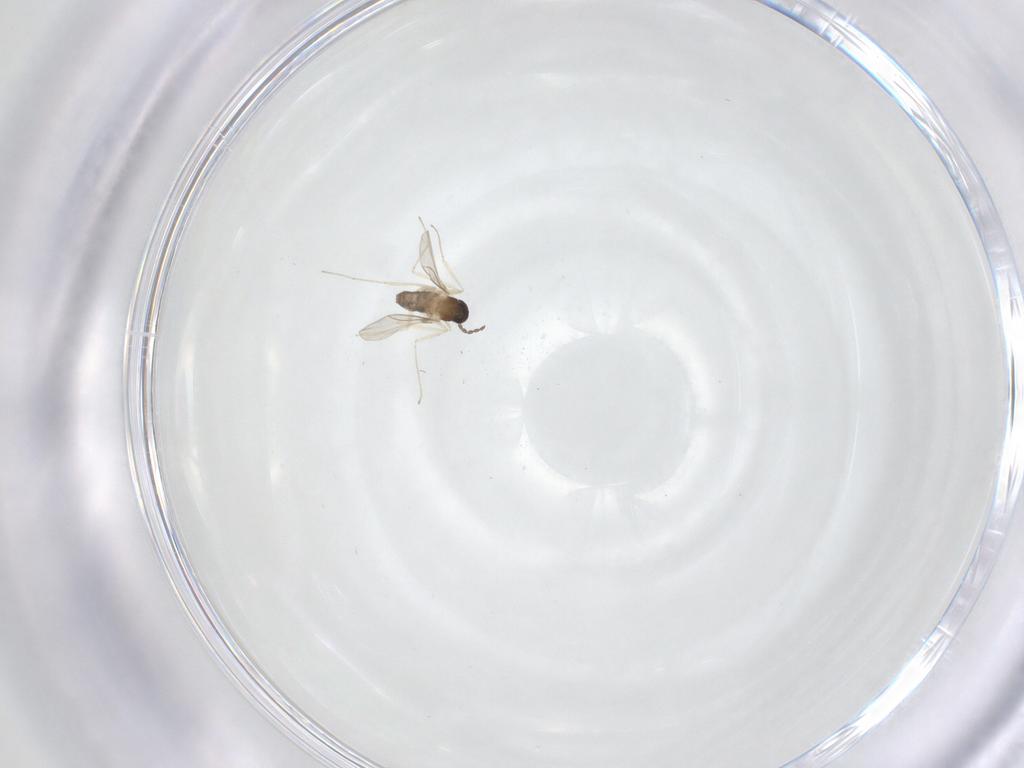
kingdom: Animalia
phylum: Arthropoda
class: Insecta
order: Diptera
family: Cecidomyiidae
